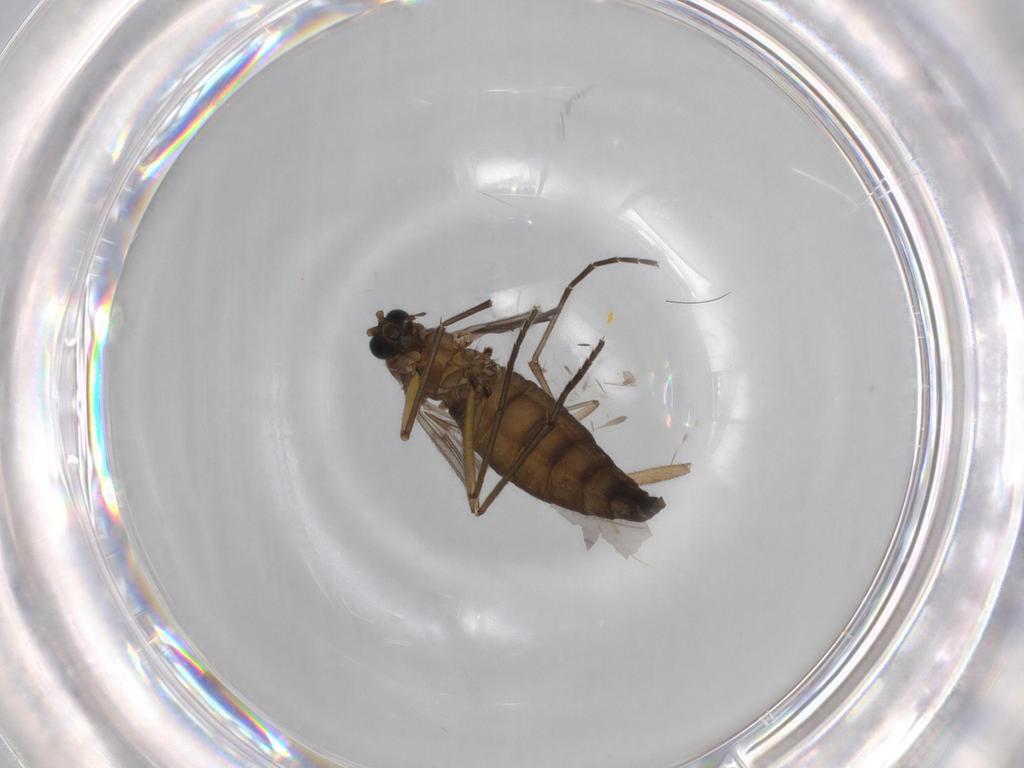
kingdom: Animalia
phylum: Arthropoda
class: Insecta
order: Diptera
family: Sciaridae
